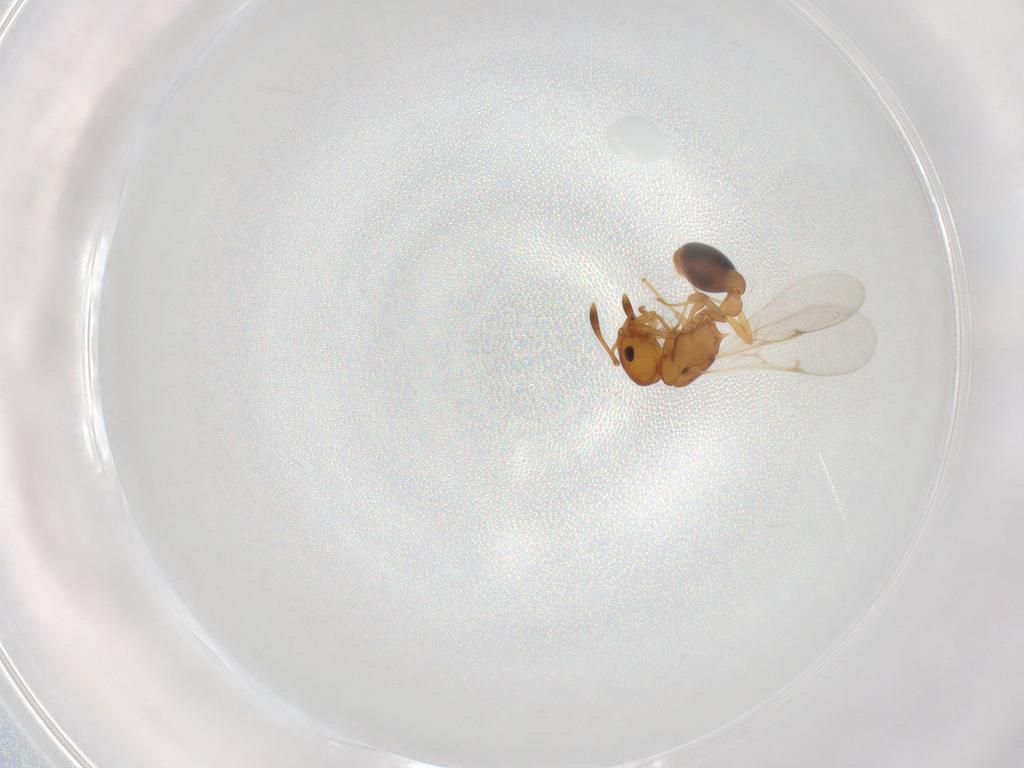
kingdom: Animalia
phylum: Arthropoda
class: Insecta
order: Hymenoptera
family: Formicidae
